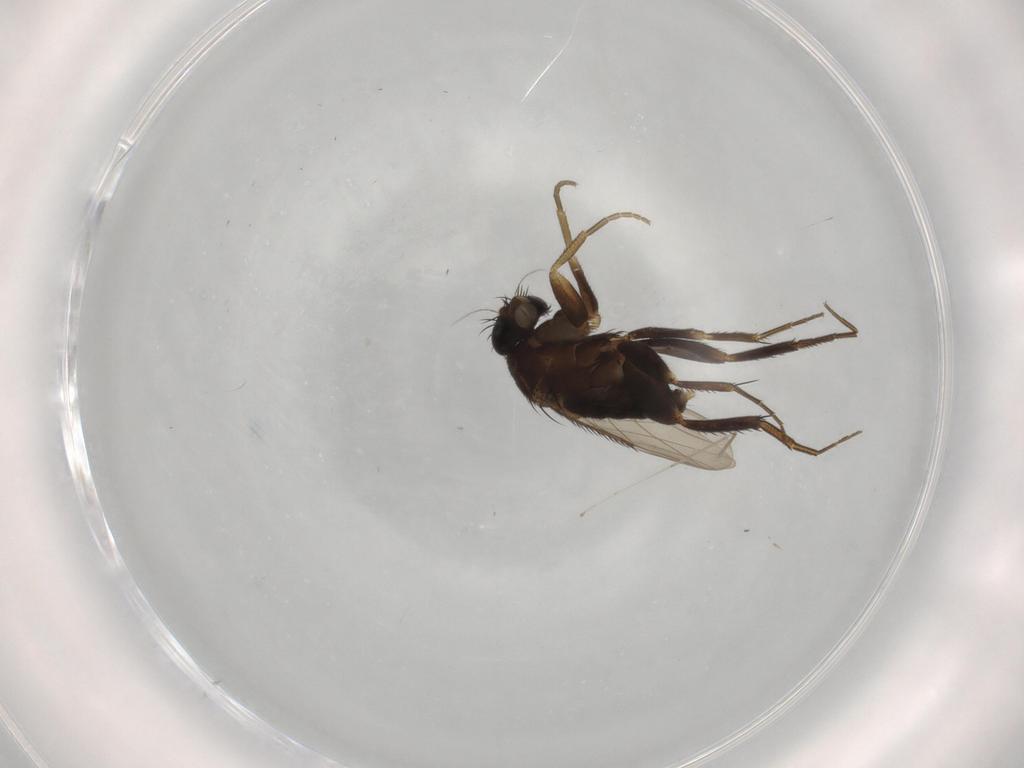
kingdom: Animalia
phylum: Arthropoda
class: Insecta
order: Diptera
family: Phoridae
